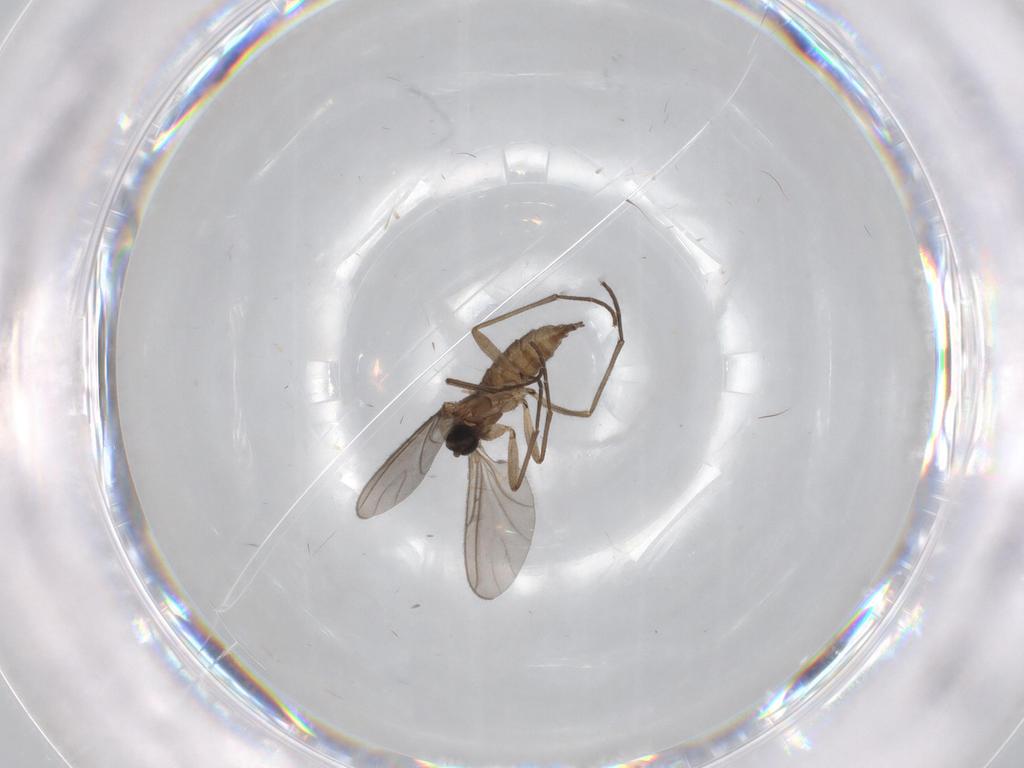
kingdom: Animalia
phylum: Arthropoda
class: Insecta
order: Diptera
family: Sciaridae
